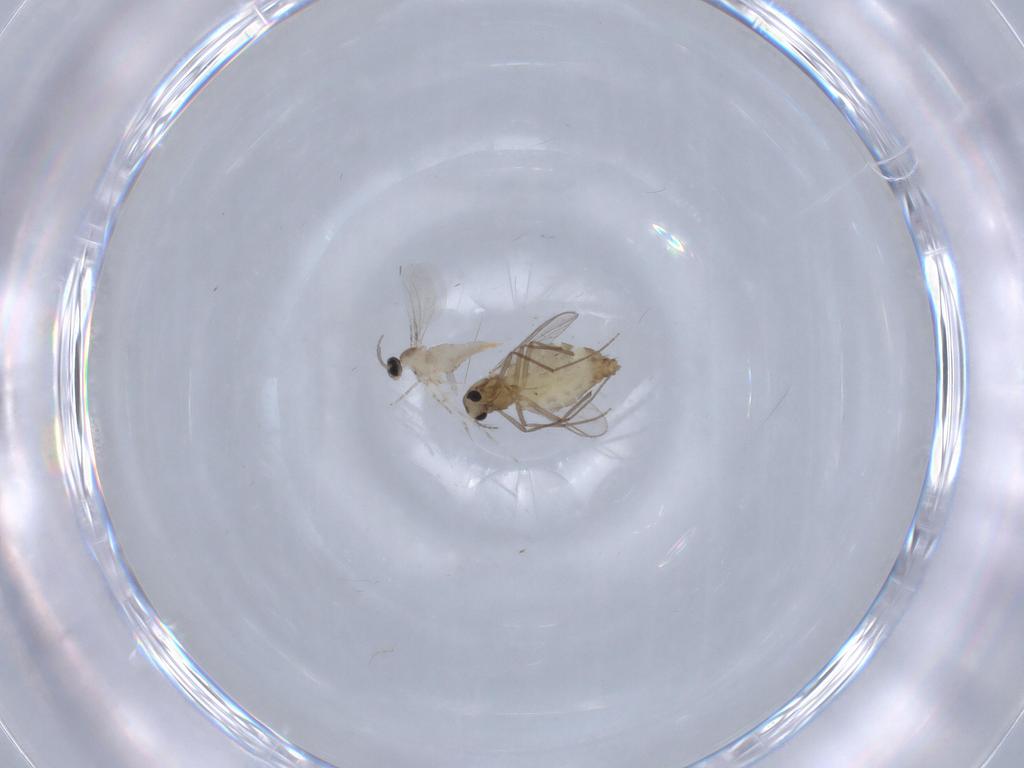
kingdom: Animalia
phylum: Arthropoda
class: Insecta
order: Diptera
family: Chironomidae
